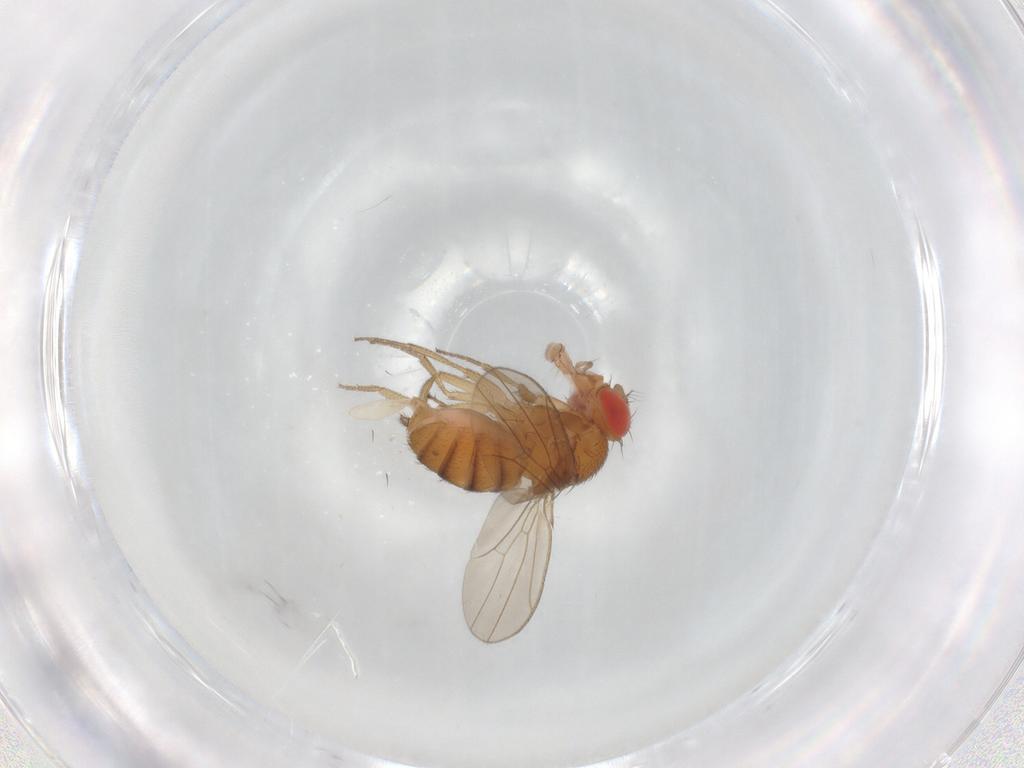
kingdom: Animalia
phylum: Arthropoda
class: Insecta
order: Diptera
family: Drosophilidae
